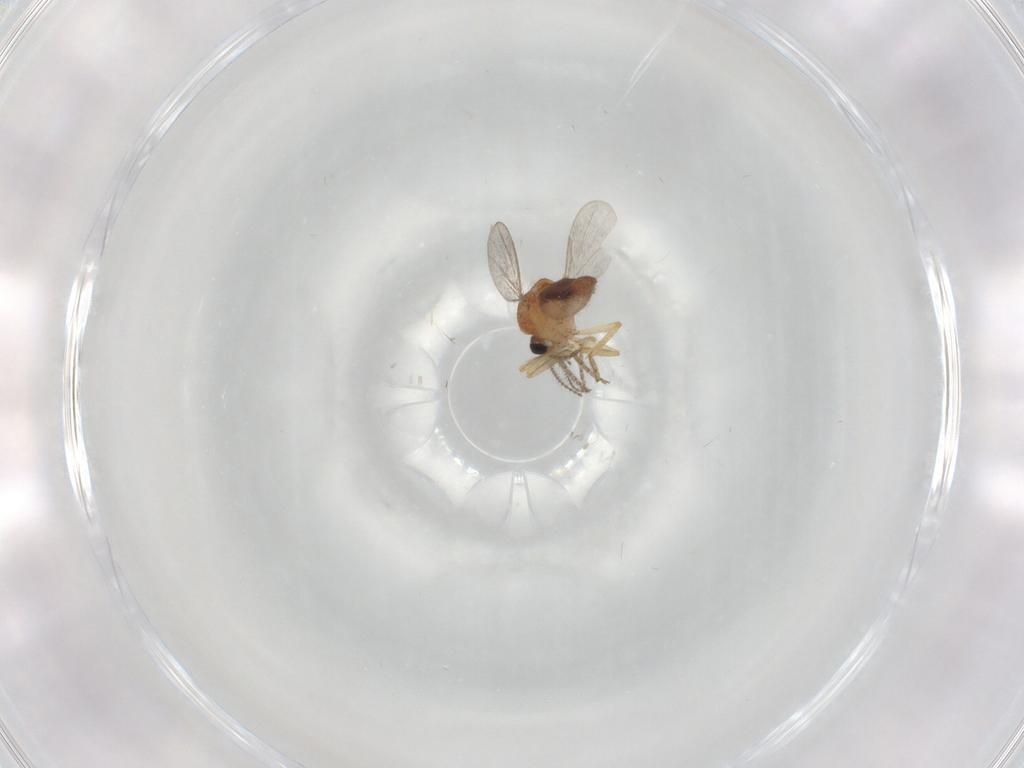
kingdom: Animalia
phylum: Arthropoda
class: Insecta
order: Diptera
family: Ceratopogonidae
